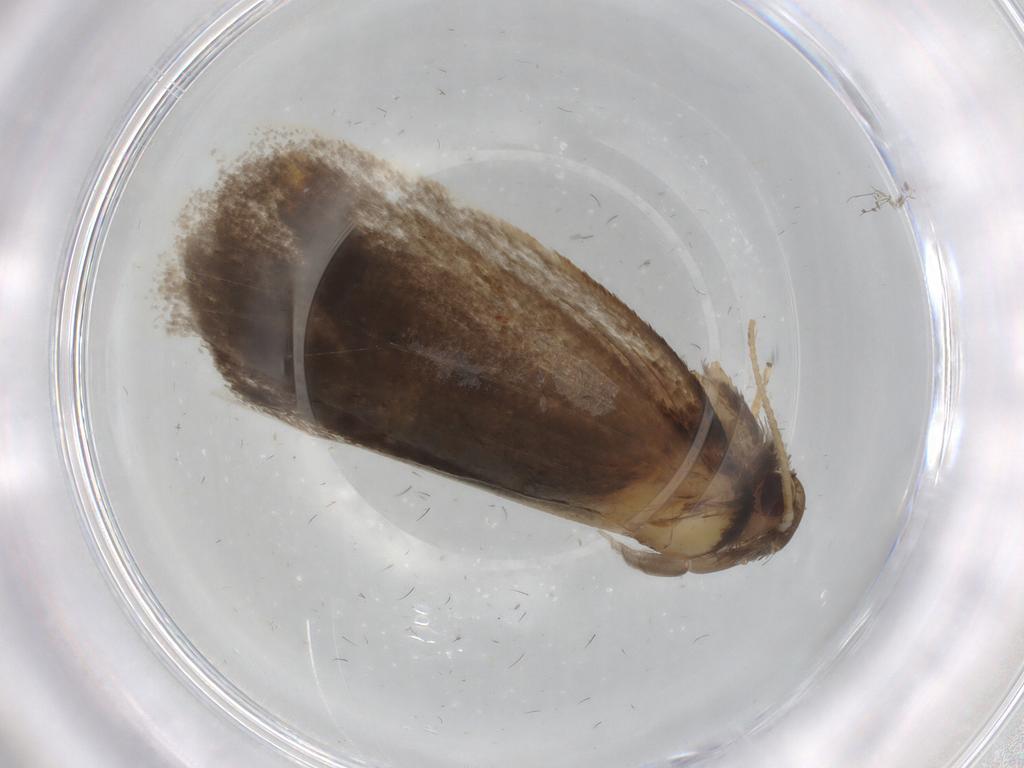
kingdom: Animalia
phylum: Arthropoda
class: Insecta
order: Lepidoptera
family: Tineidae
